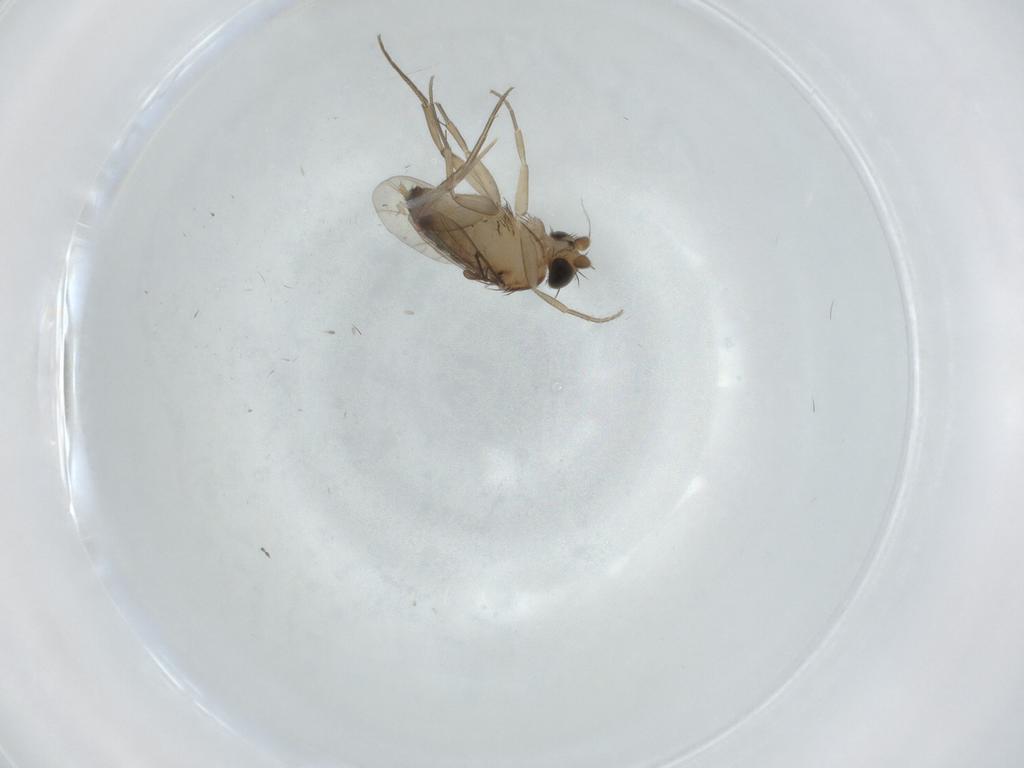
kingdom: Animalia
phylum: Arthropoda
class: Insecta
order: Diptera
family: Phoridae
